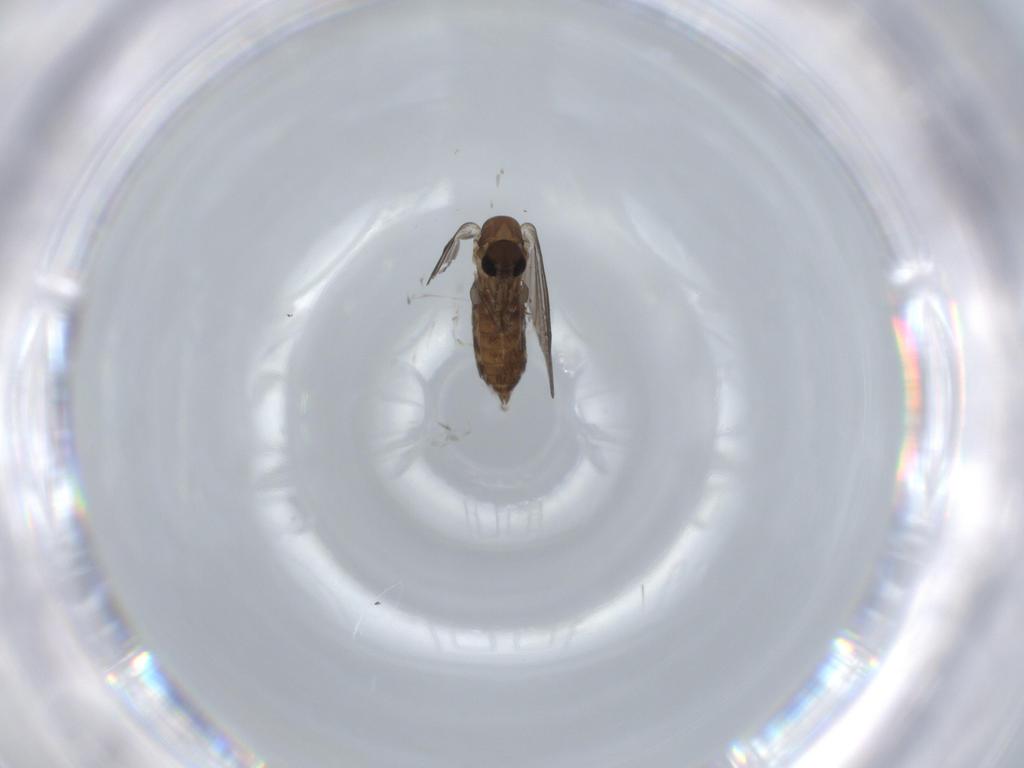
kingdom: Animalia
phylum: Arthropoda
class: Insecta
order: Diptera
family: Psychodidae
